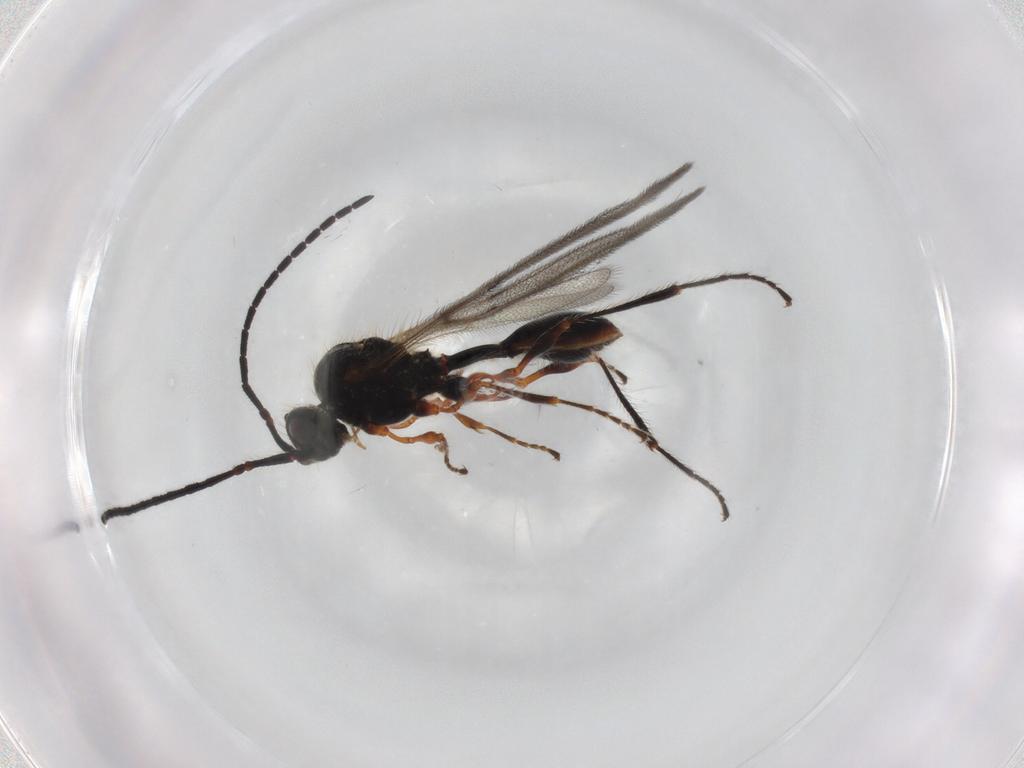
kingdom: Animalia
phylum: Arthropoda
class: Insecta
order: Hymenoptera
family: Diapriidae
